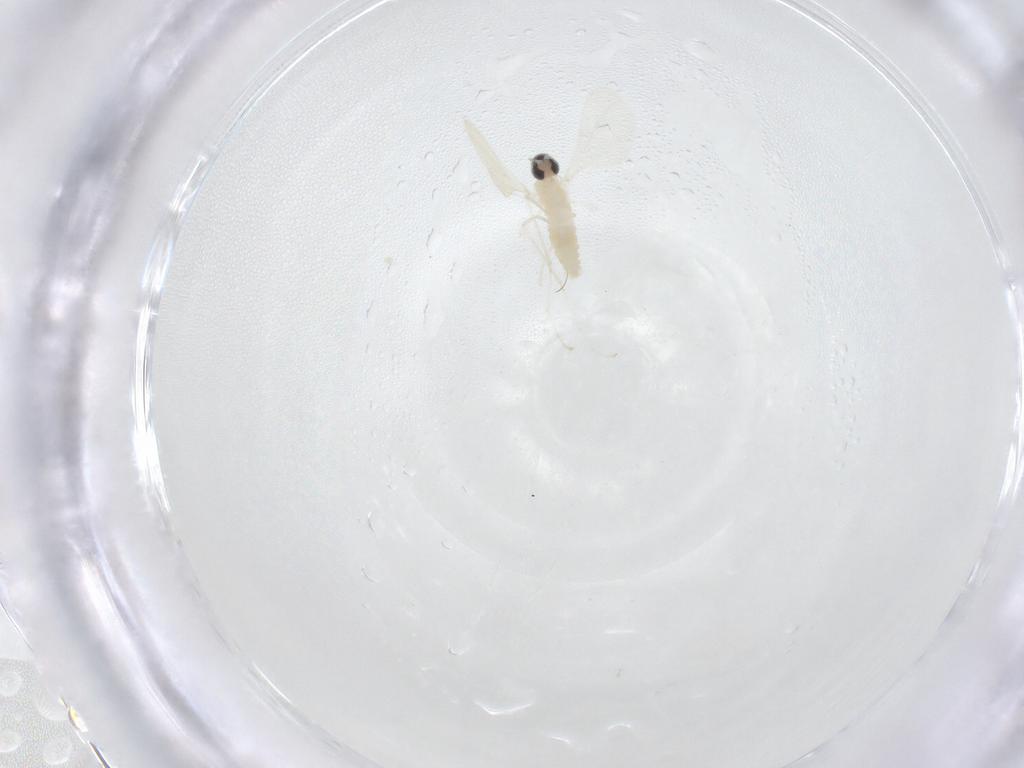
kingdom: Animalia
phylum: Arthropoda
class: Insecta
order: Diptera
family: Cecidomyiidae
